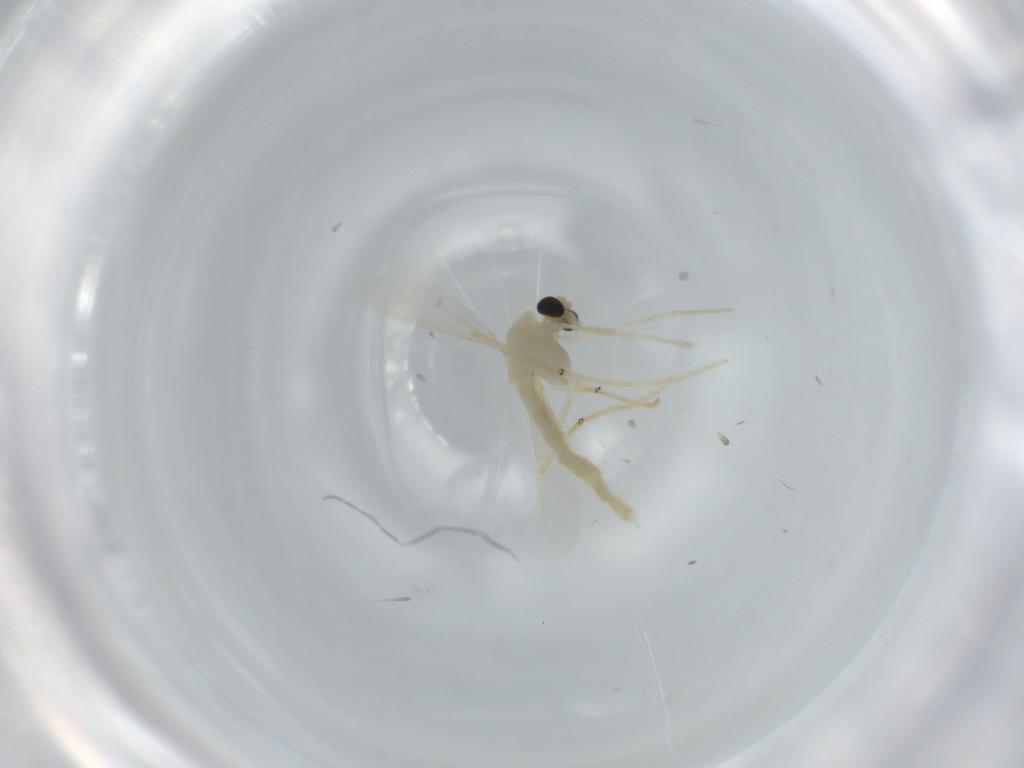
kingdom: Animalia
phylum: Arthropoda
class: Insecta
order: Diptera
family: Chironomidae
